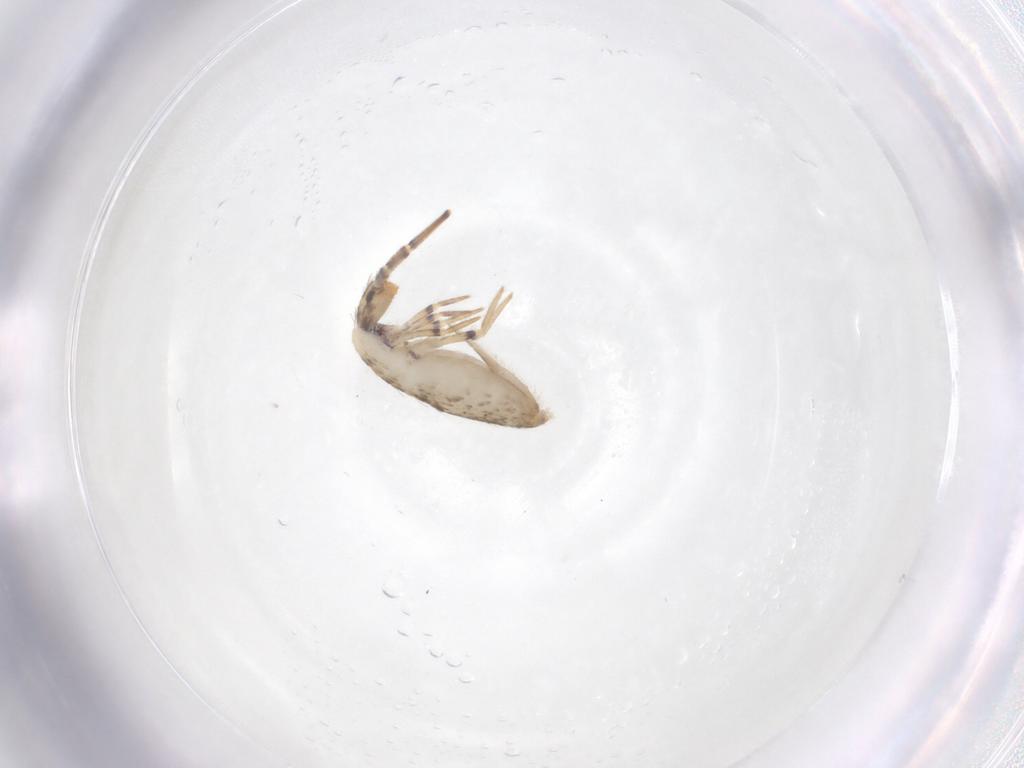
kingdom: Animalia
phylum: Arthropoda
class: Collembola
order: Entomobryomorpha
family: Entomobryidae
